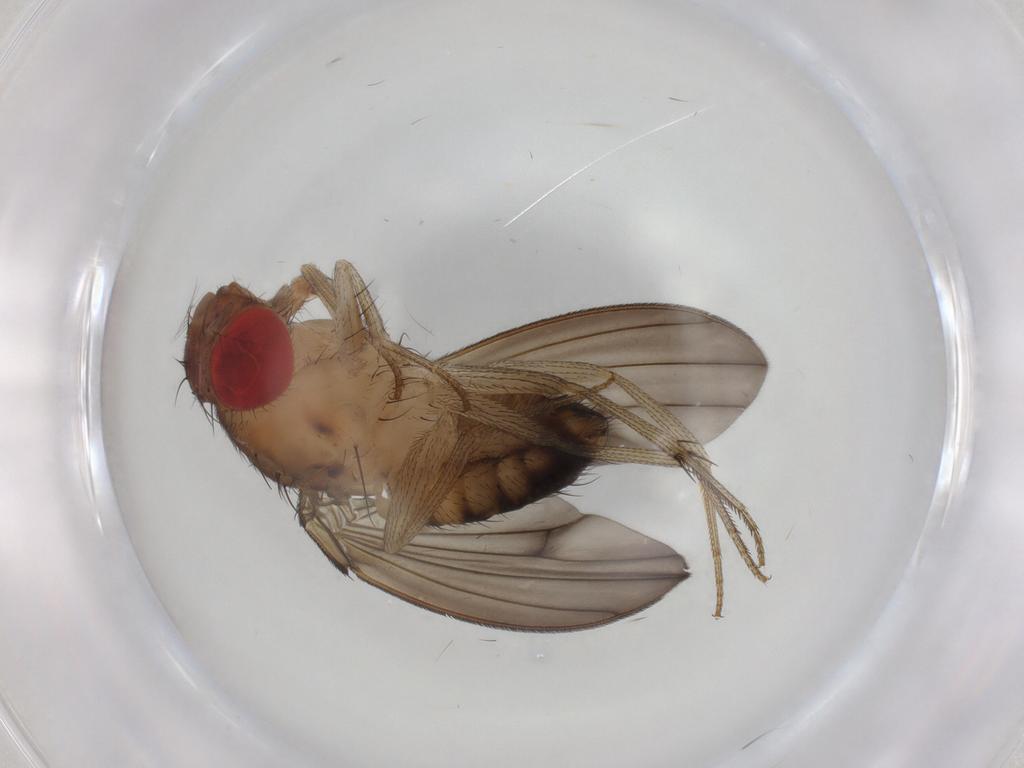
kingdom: Animalia
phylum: Arthropoda
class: Insecta
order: Diptera
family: Drosophilidae
